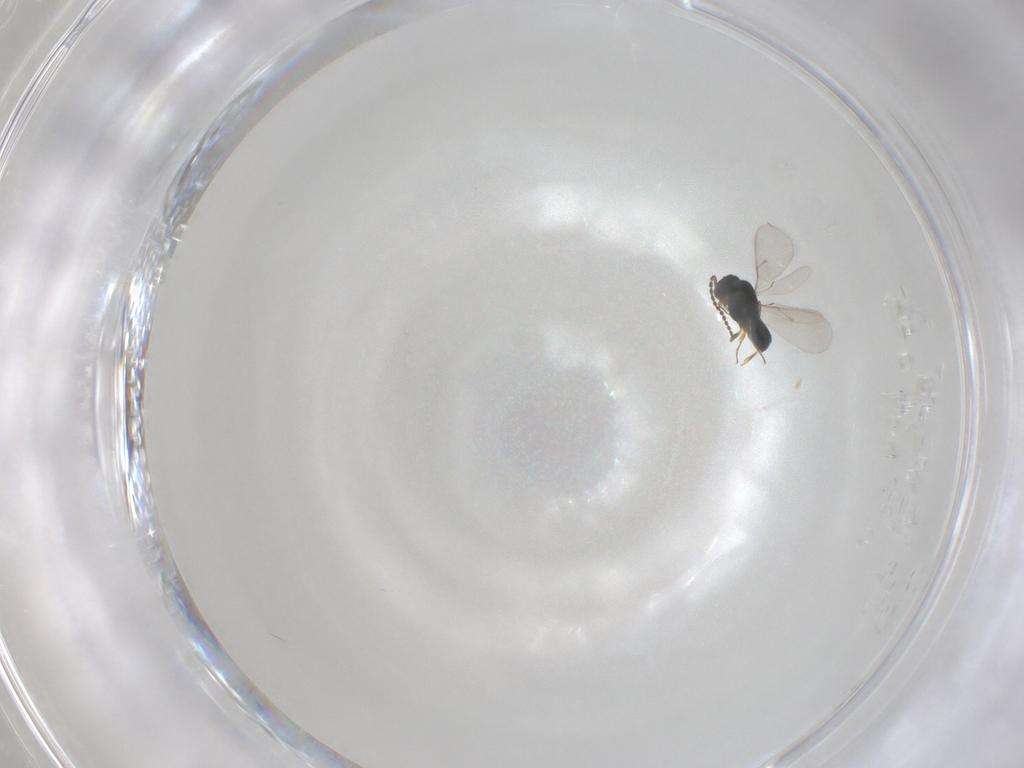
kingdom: Animalia
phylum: Arthropoda
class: Insecta
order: Hymenoptera
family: Scelionidae
